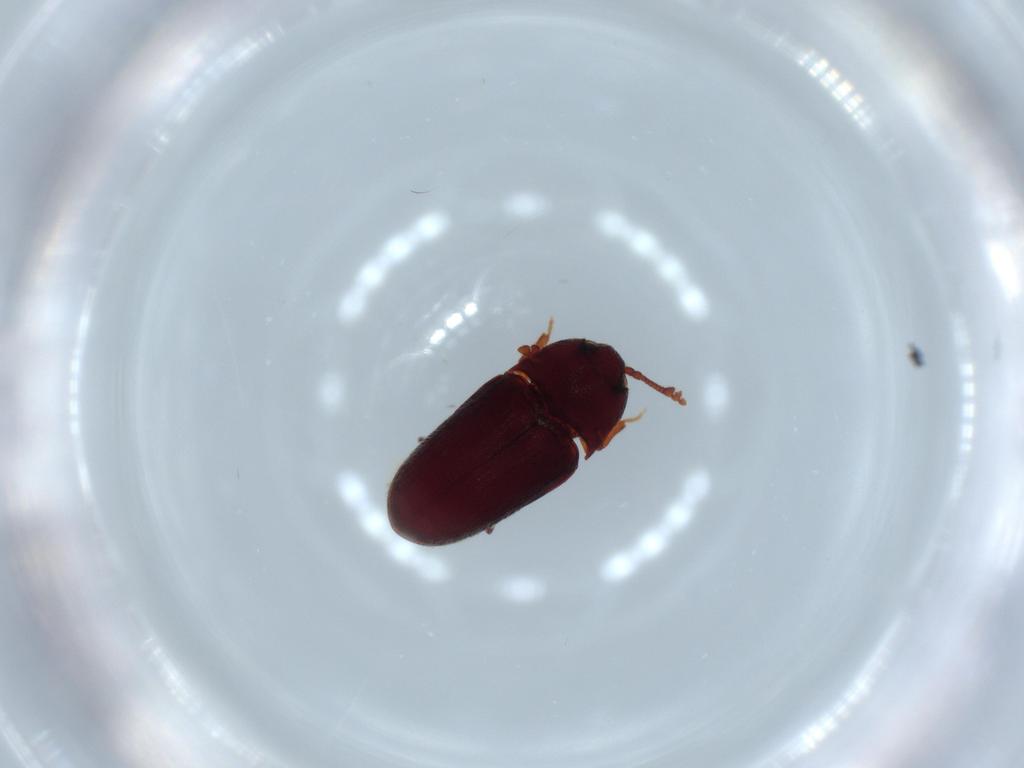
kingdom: Animalia
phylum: Arthropoda
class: Insecta
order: Coleoptera
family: Throscidae
